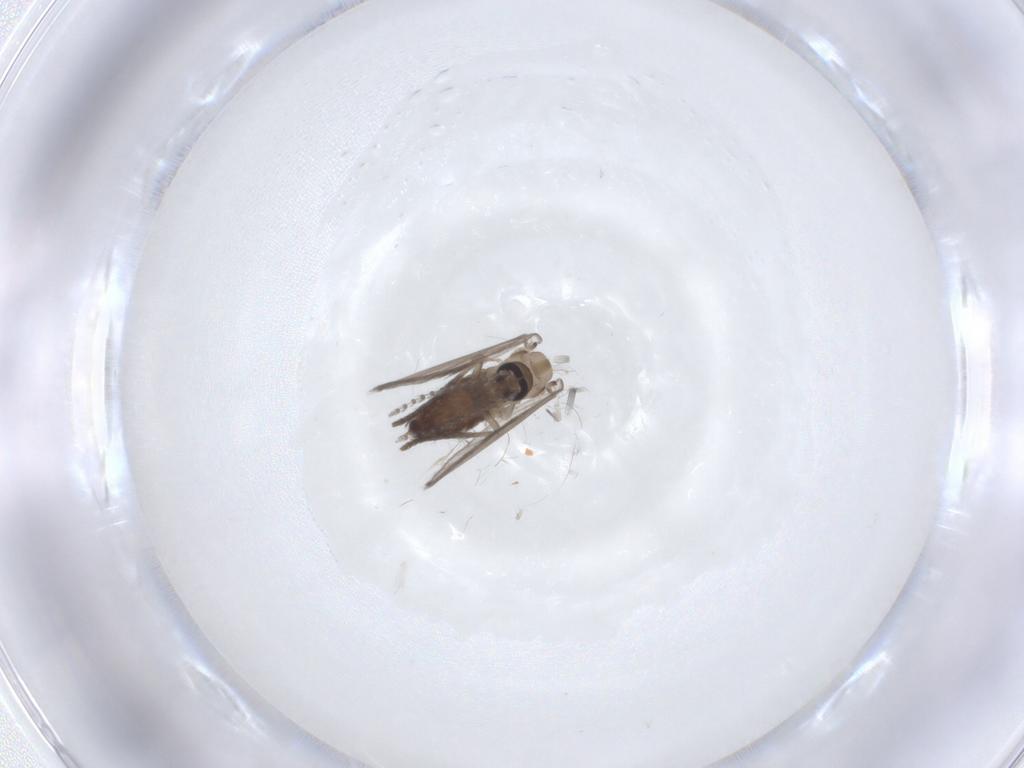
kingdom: Animalia
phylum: Arthropoda
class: Insecta
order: Diptera
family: Psychodidae
